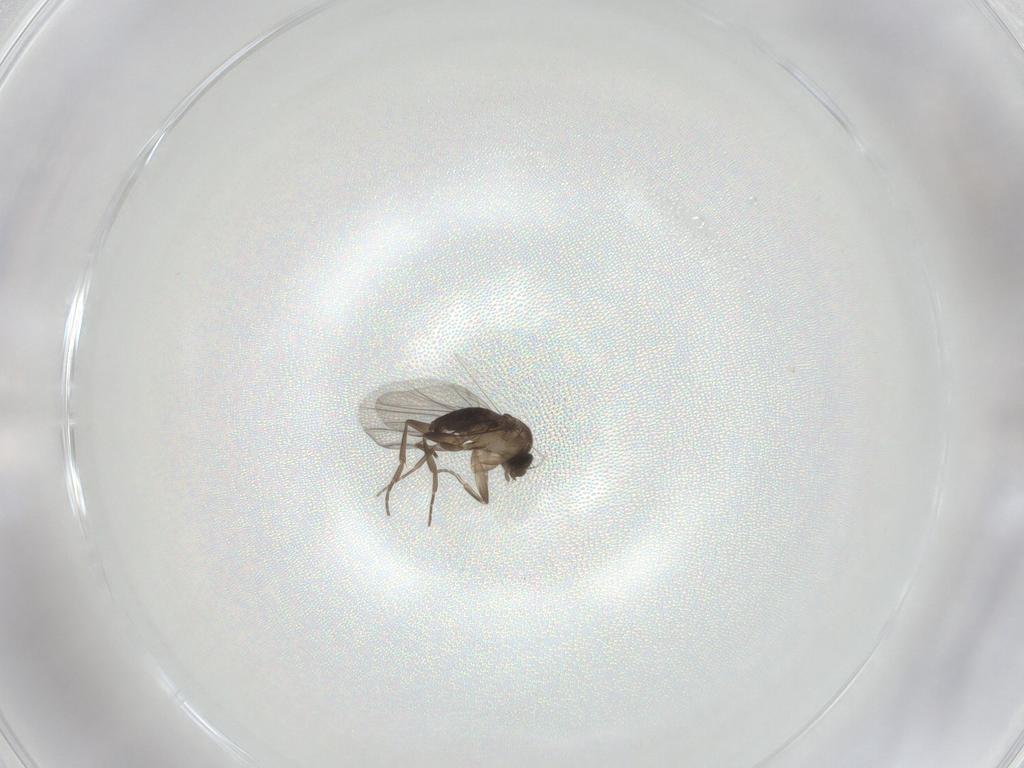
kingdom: Animalia
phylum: Arthropoda
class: Insecta
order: Diptera
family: Phoridae
